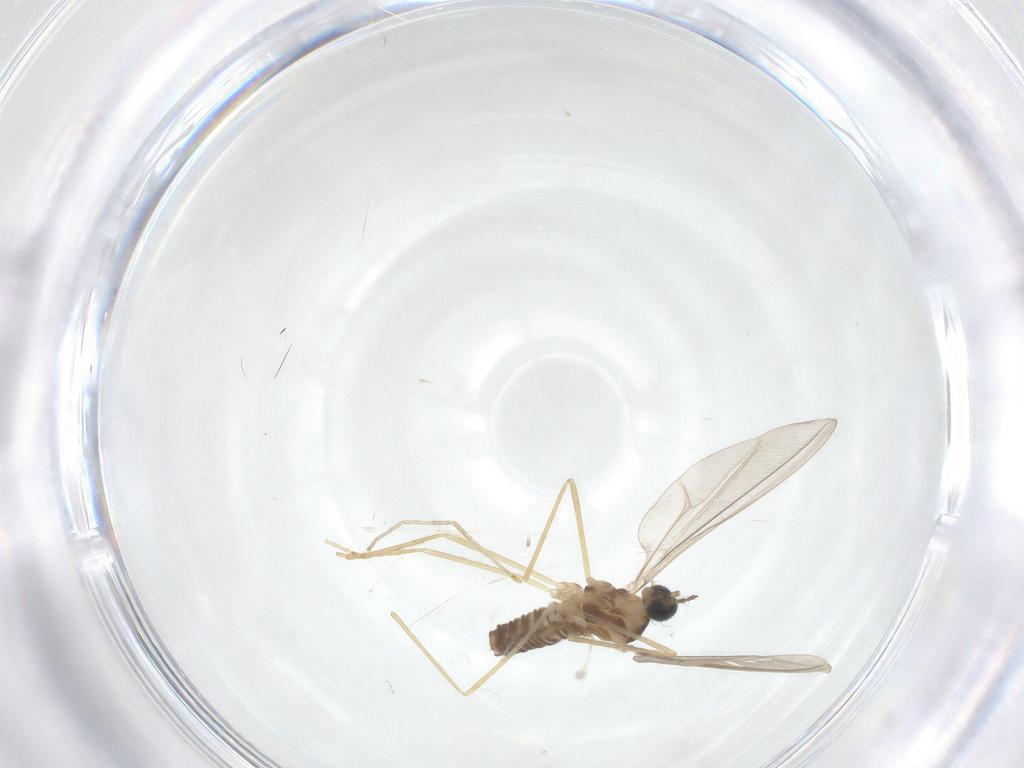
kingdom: Animalia
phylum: Arthropoda
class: Insecta
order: Diptera
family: Cecidomyiidae
